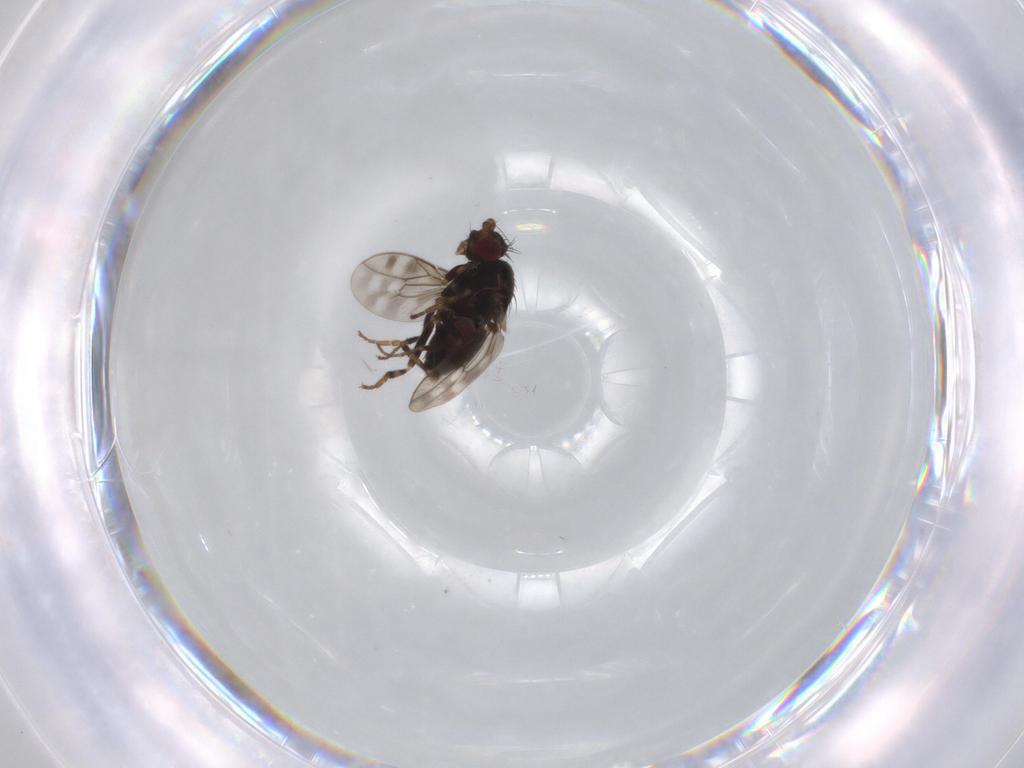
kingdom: Animalia
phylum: Arthropoda
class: Insecta
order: Diptera
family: Sphaeroceridae
